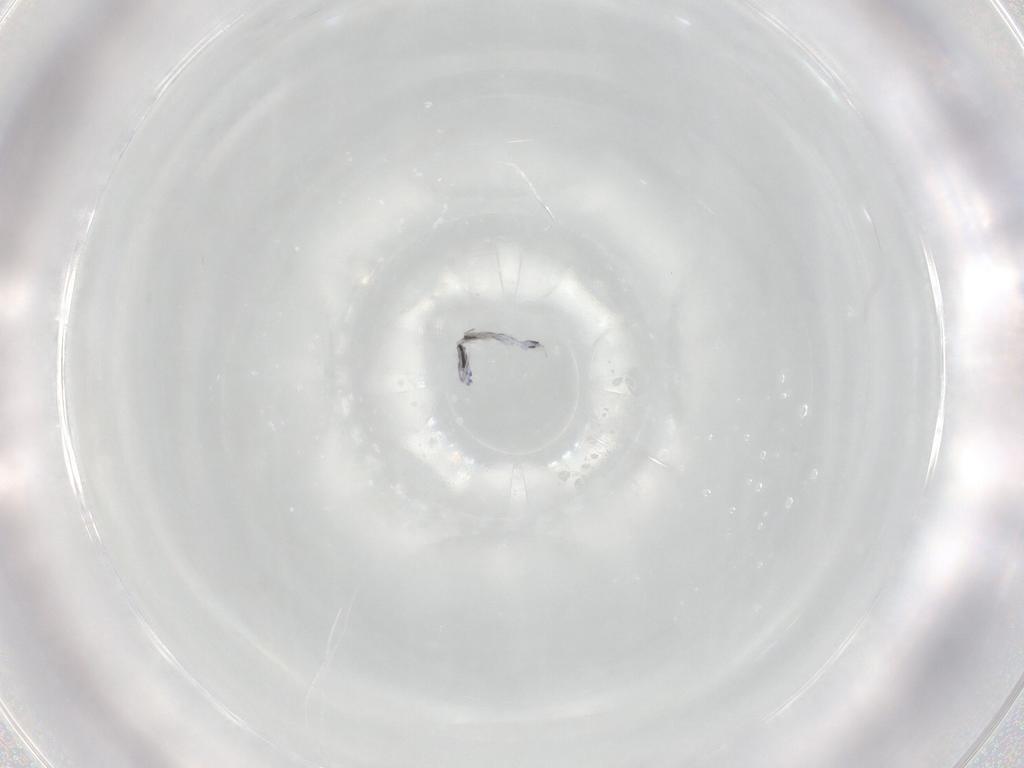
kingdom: Animalia
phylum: Arthropoda
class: Collembola
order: Entomobryomorpha
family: Entomobryidae
